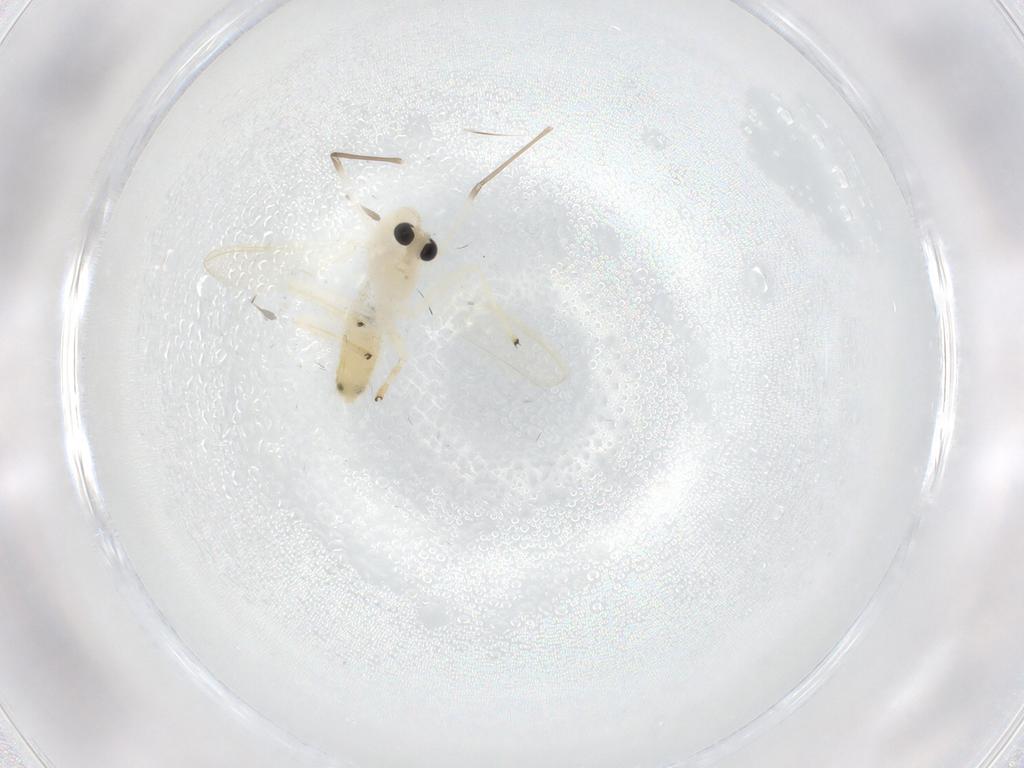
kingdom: Animalia
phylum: Arthropoda
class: Insecta
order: Diptera
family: Cecidomyiidae
